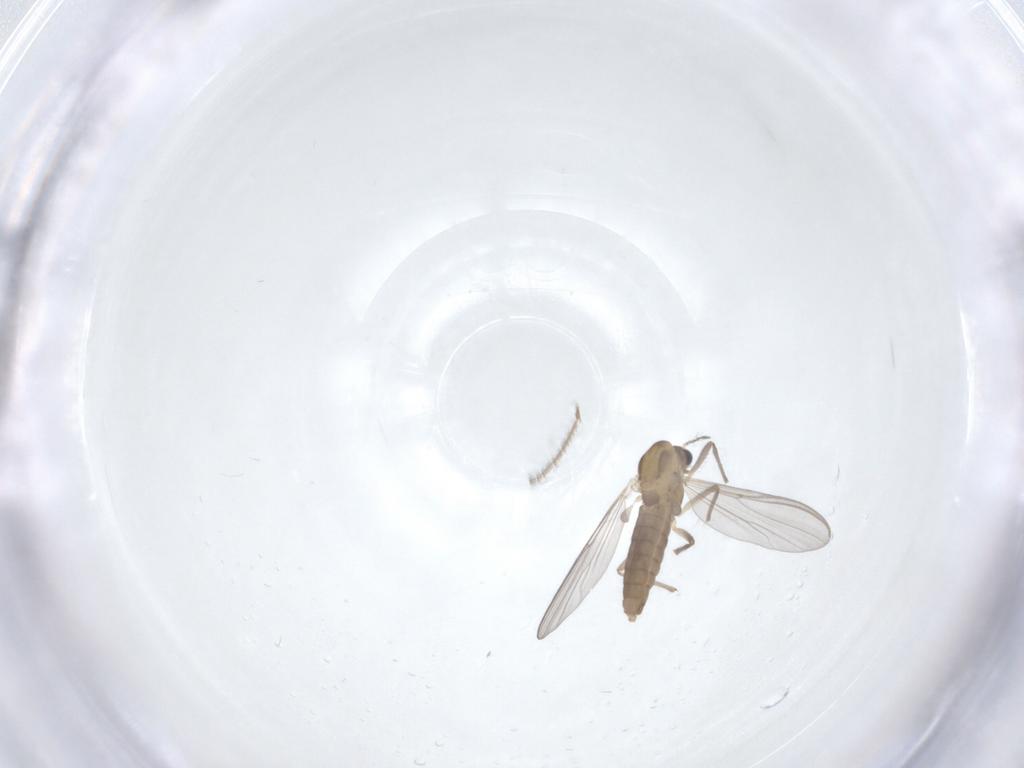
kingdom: Animalia
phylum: Arthropoda
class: Insecta
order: Diptera
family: Chironomidae
